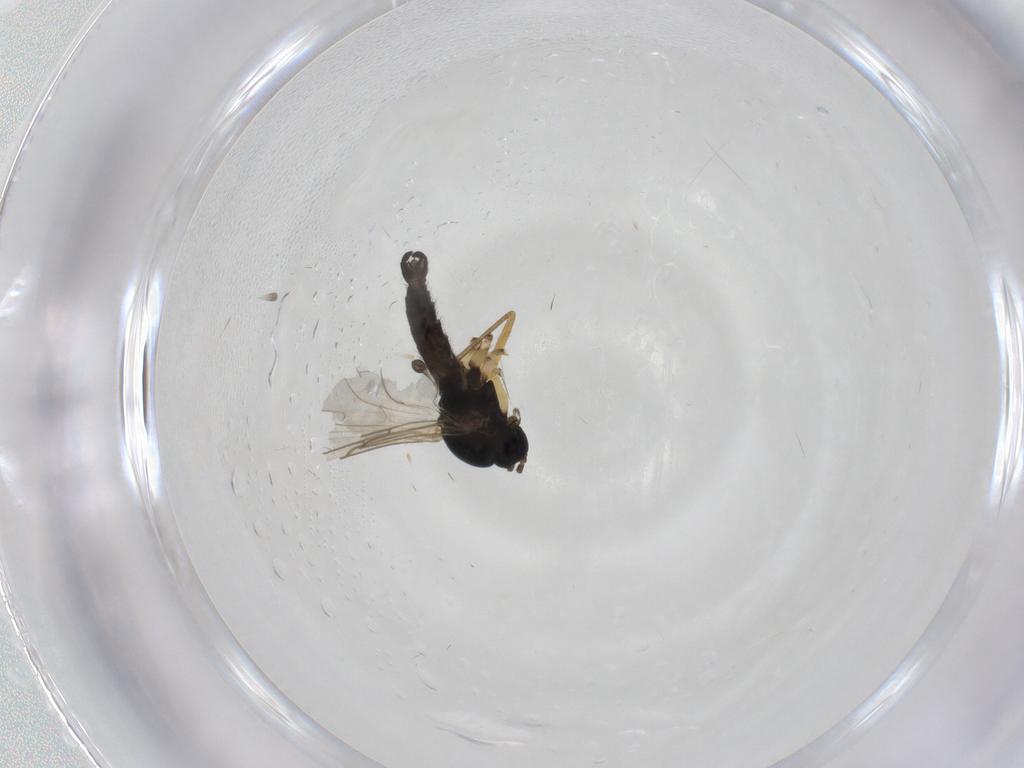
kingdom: Animalia
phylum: Arthropoda
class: Insecta
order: Diptera
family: Sciaridae
